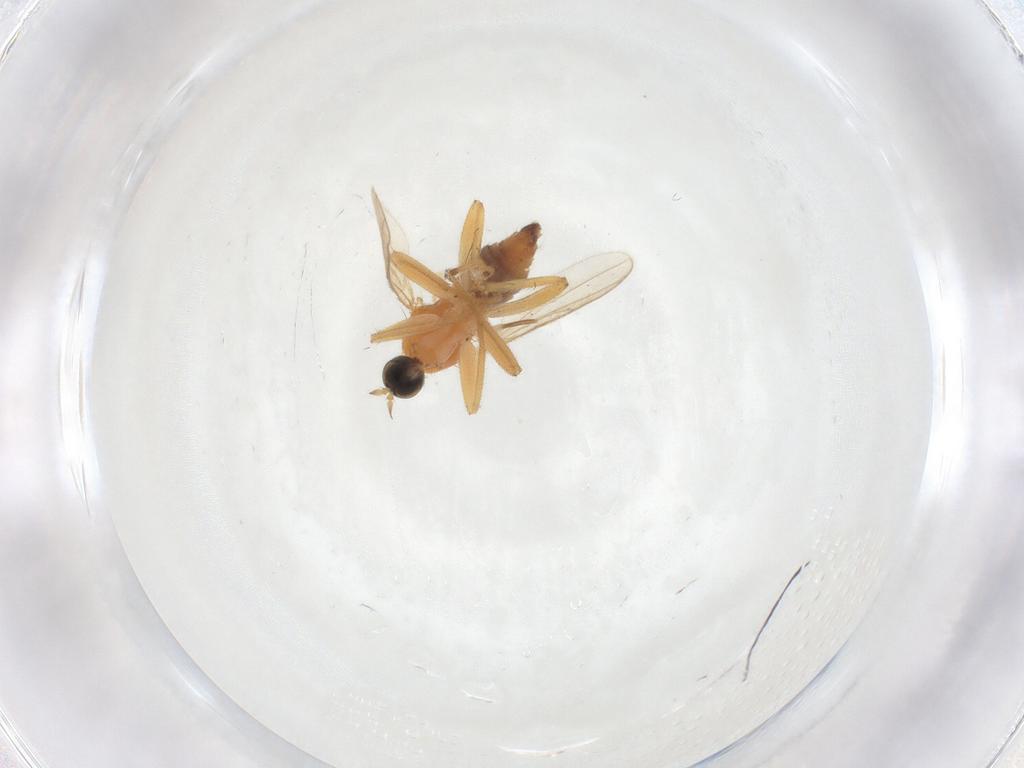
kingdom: Animalia
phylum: Arthropoda
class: Insecta
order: Diptera
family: Hybotidae
